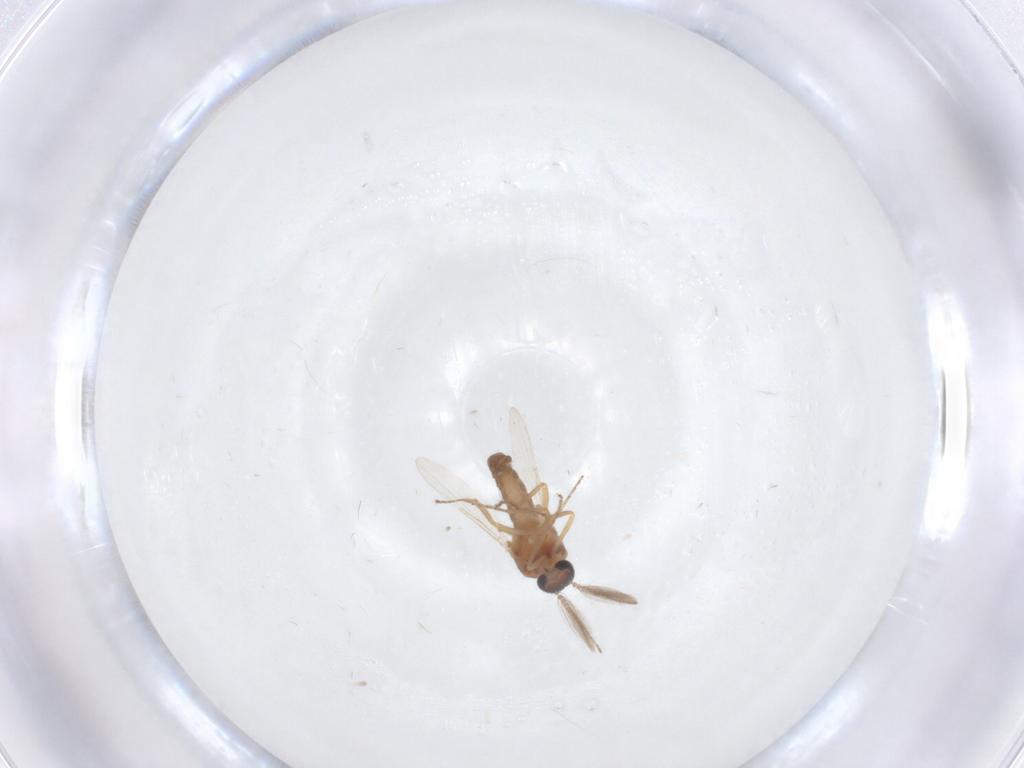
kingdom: Animalia
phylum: Arthropoda
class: Insecta
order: Diptera
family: Ceratopogonidae
